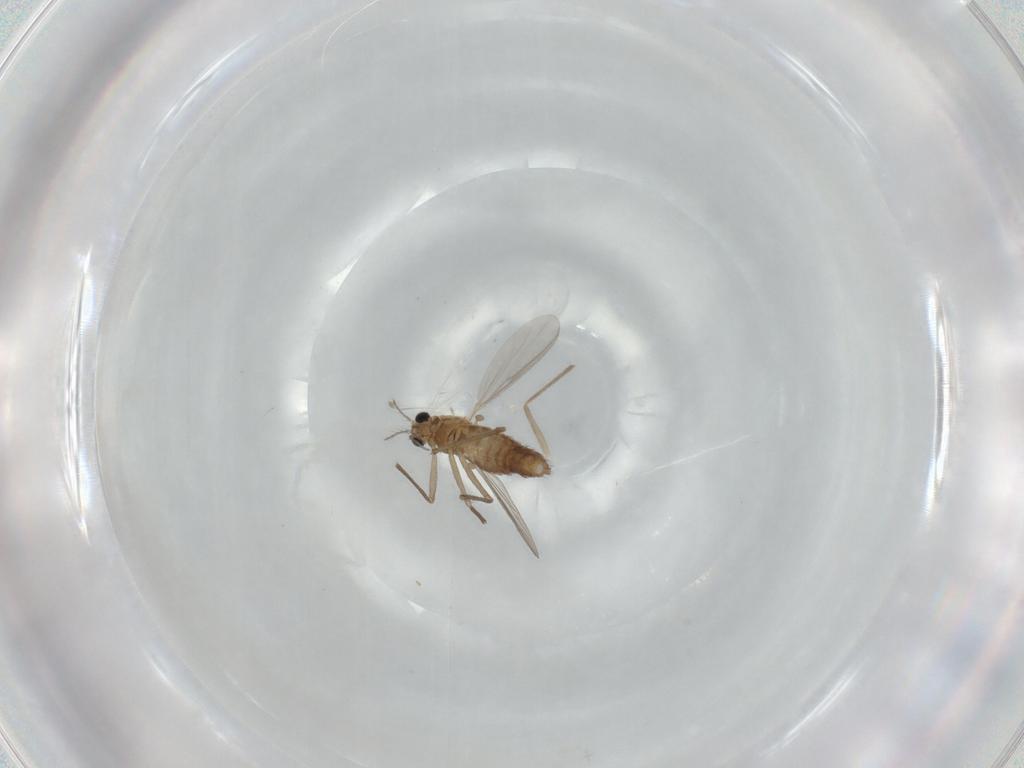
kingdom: Animalia
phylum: Arthropoda
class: Insecta
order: Diptera
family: Chironomidae
